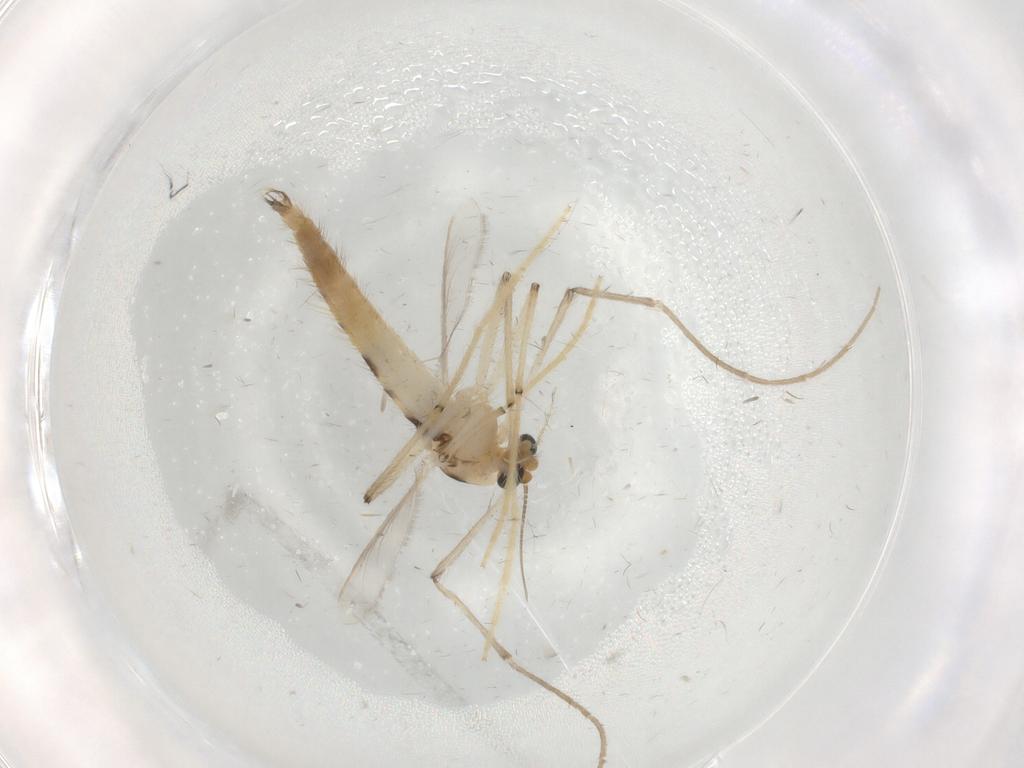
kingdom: Animalia
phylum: Arthropoda
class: Insecta
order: Diptera
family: Chironomidae
